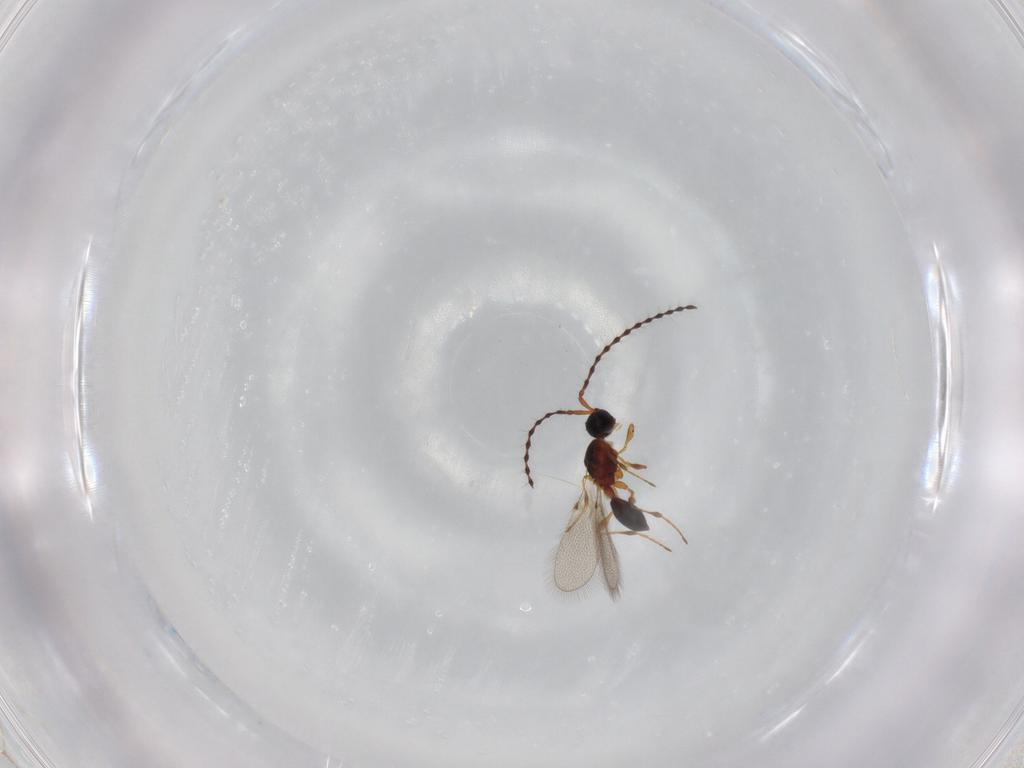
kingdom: Animalia
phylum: Arthropoda
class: Insecta
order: Hymenoptera
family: Diapriidae
